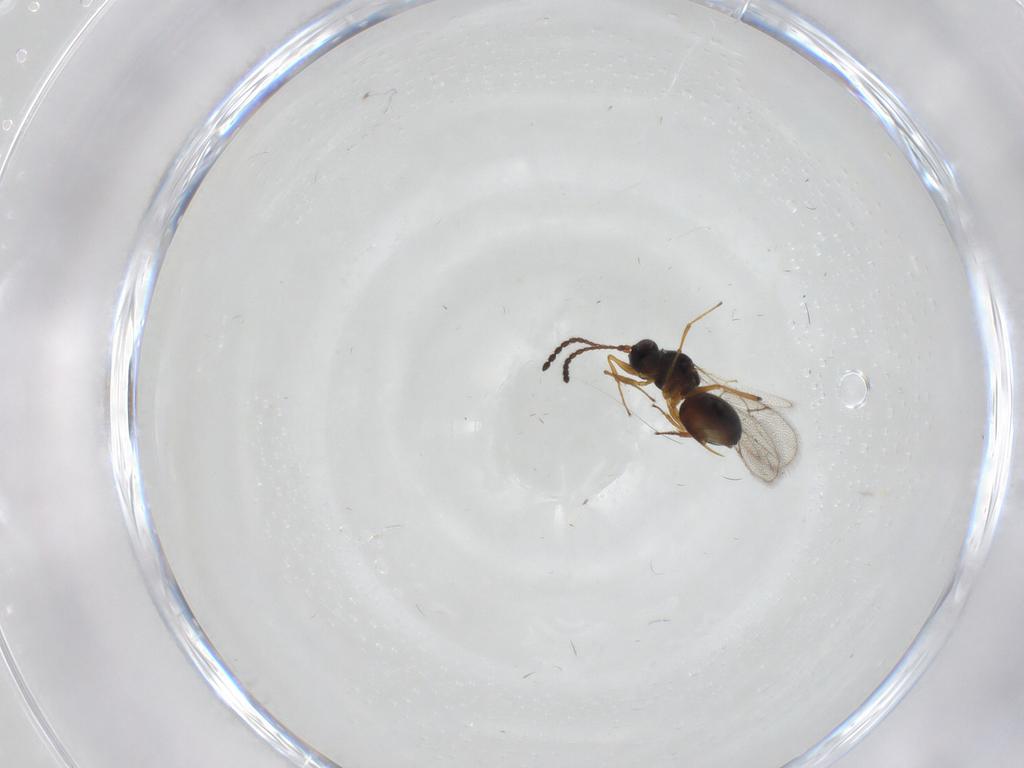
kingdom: Animalia
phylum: Arthropoda
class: Insecta
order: Hymenoptera
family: Figitidae
